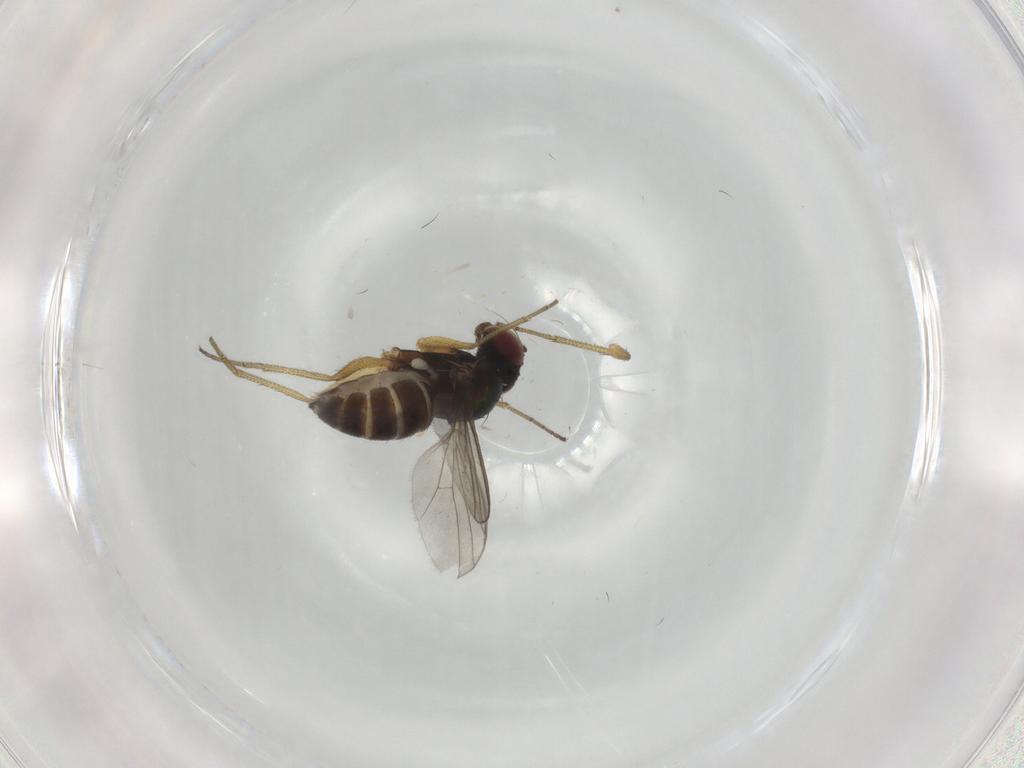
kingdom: Animalia
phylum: Arthropoda
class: Insecta
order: Diptera
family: Dolichopodidae
